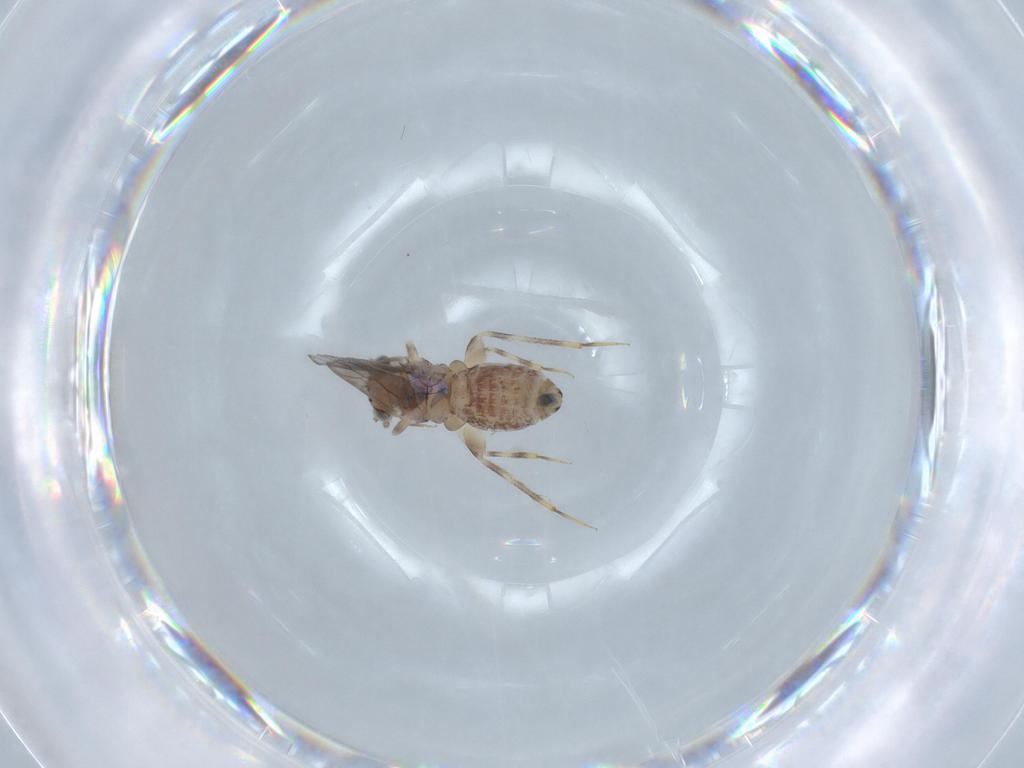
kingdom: Animalia
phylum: Arthropoda
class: Insecta
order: Psocodea
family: Lepidopsocidae
